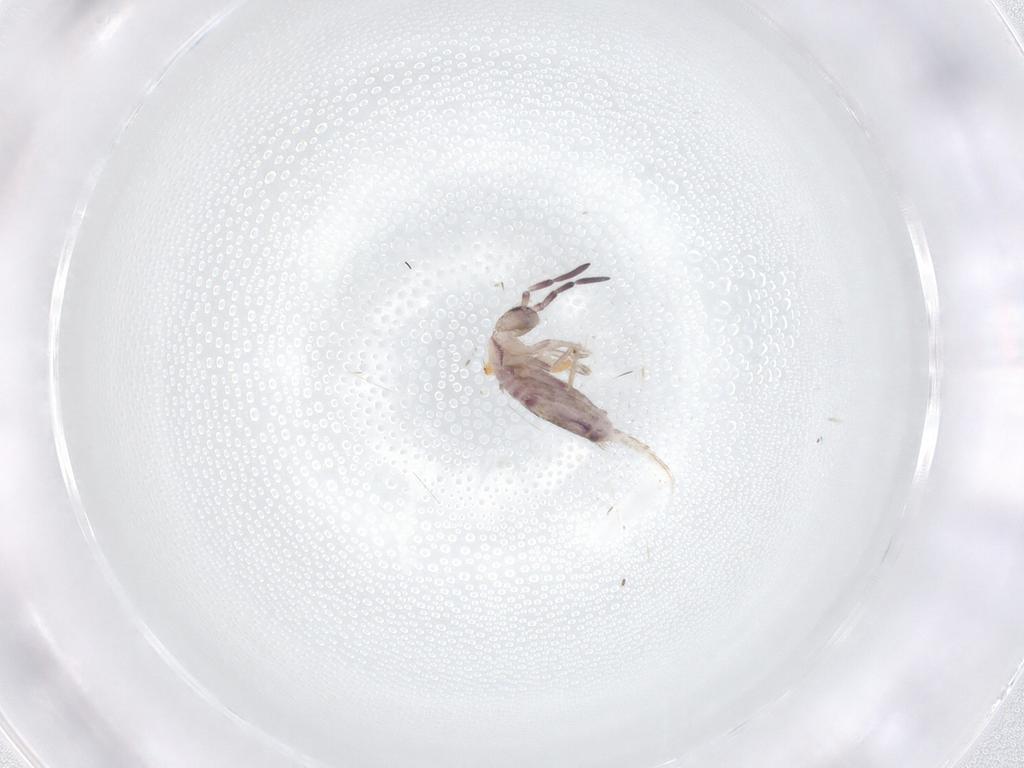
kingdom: Animalia
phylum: Arthropoda
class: Collembola
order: Poduromorpha
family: Hypogastruridae
